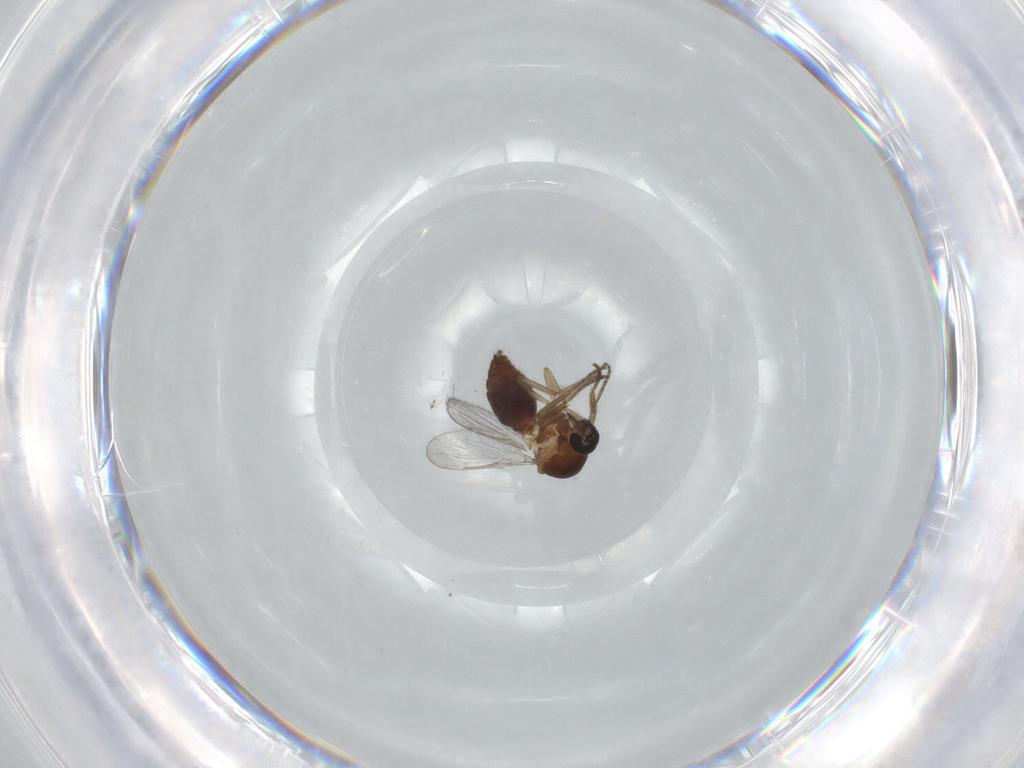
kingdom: Animalia
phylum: Arthropoda
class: Insecta
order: Diptera
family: Ceratopogonidae
